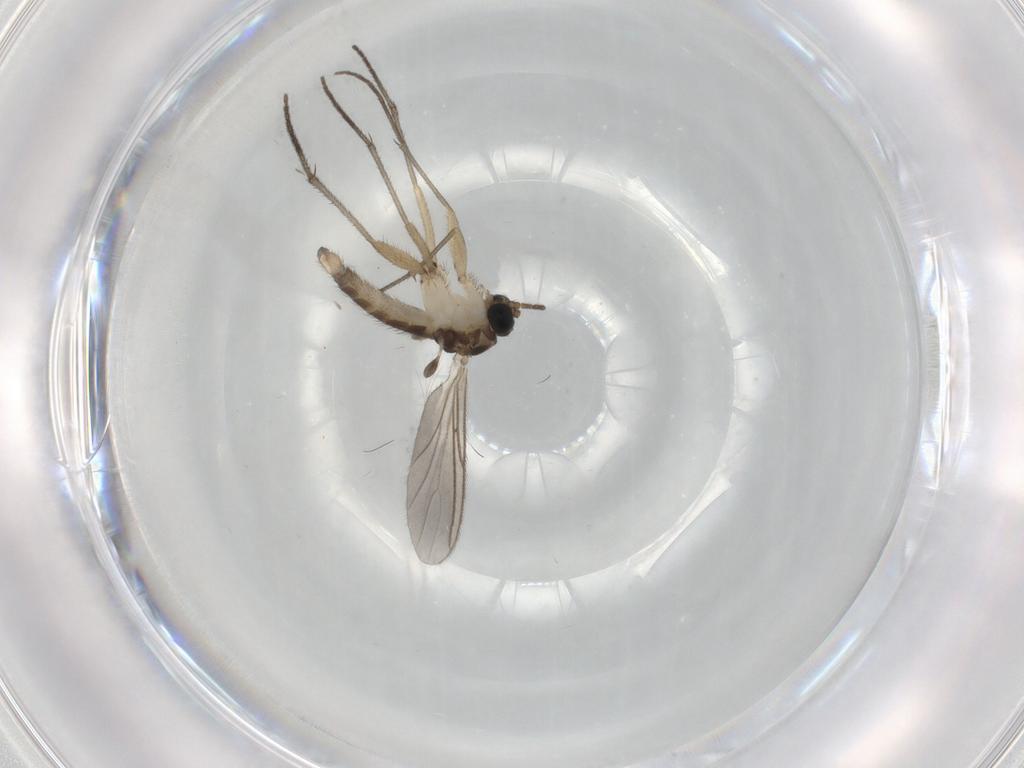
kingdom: Animalia
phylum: Arthropoda
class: Insecta
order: Diptera
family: Sciaridae
